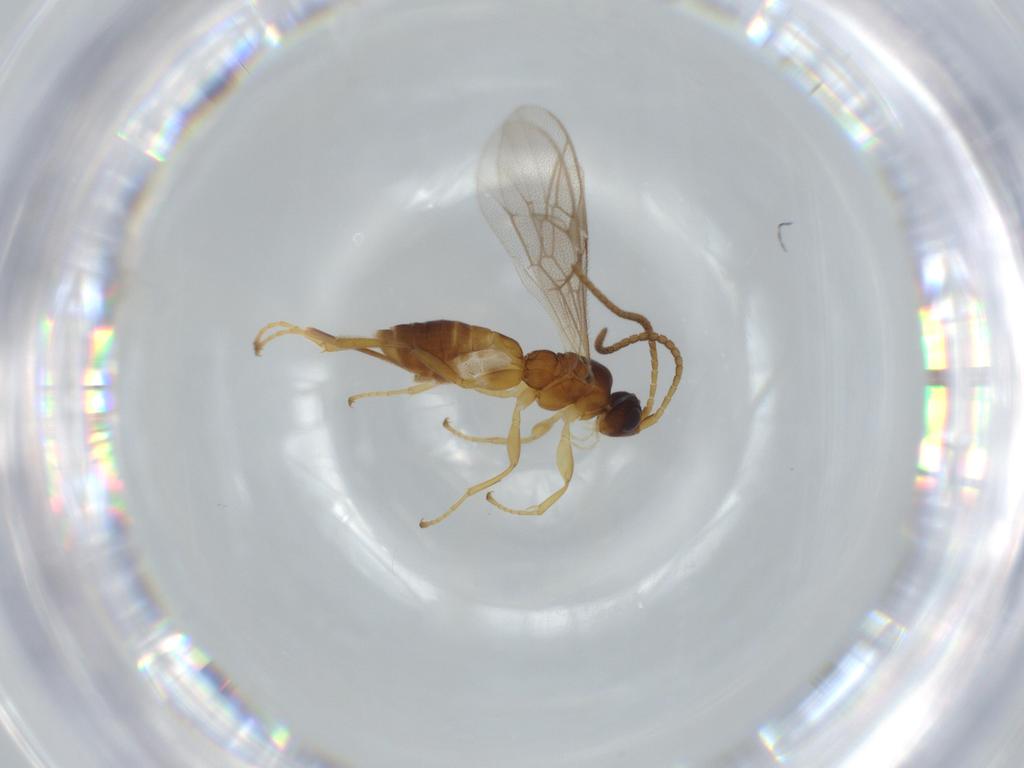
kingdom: Animalia
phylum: Arthropoda
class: Insecta
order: Hymenoptera
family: Ichneumonidae
